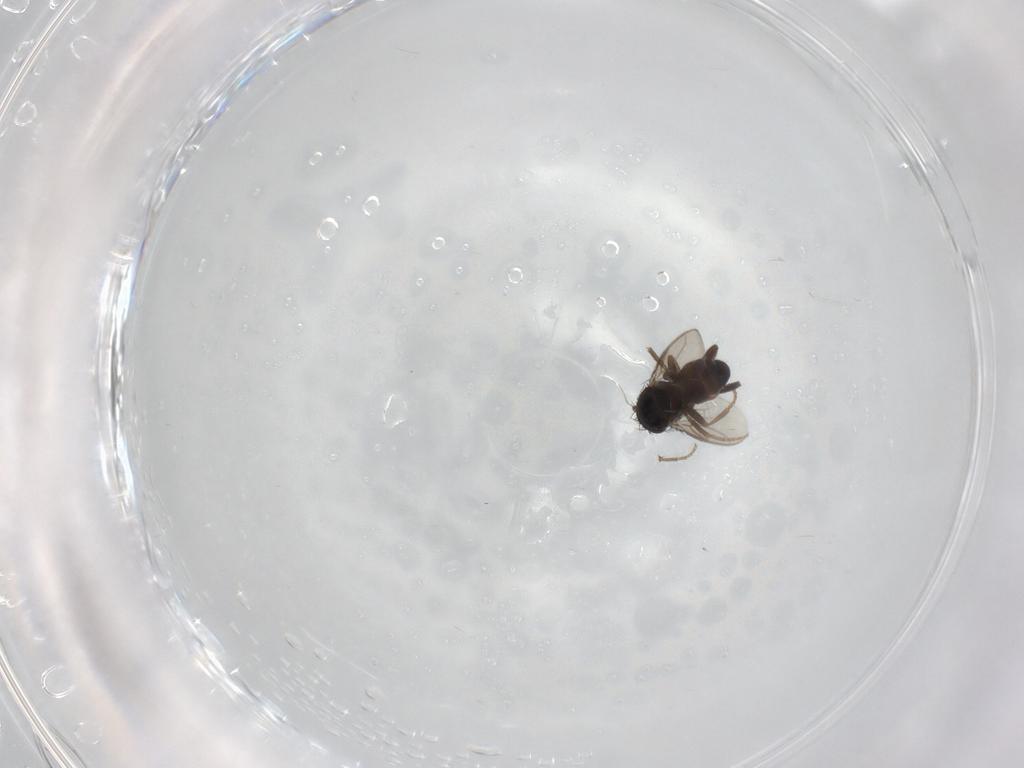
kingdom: Animalia
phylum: Arthropoda
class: Insecta
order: Diptera
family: Sphaeroceridae
